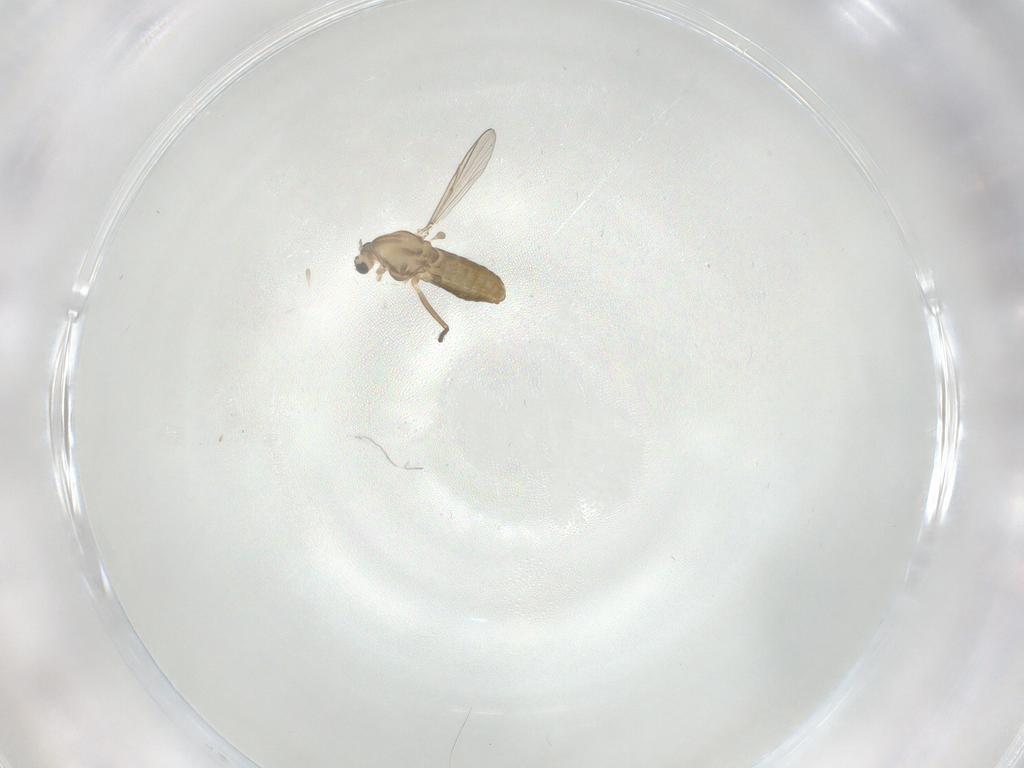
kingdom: Animalia
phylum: Arthropoda
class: Insecta
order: Diptera
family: Chironomidae
